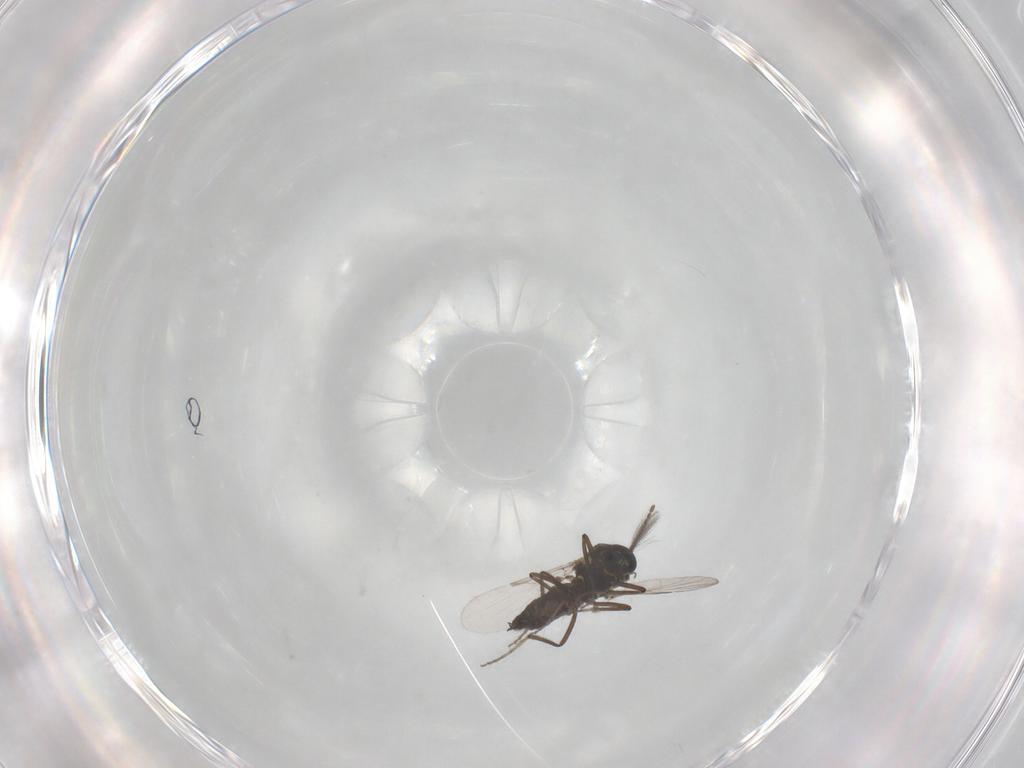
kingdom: Animalia
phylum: Arthropoda
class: Insecta
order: Diptera
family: Ceratopogonidae
